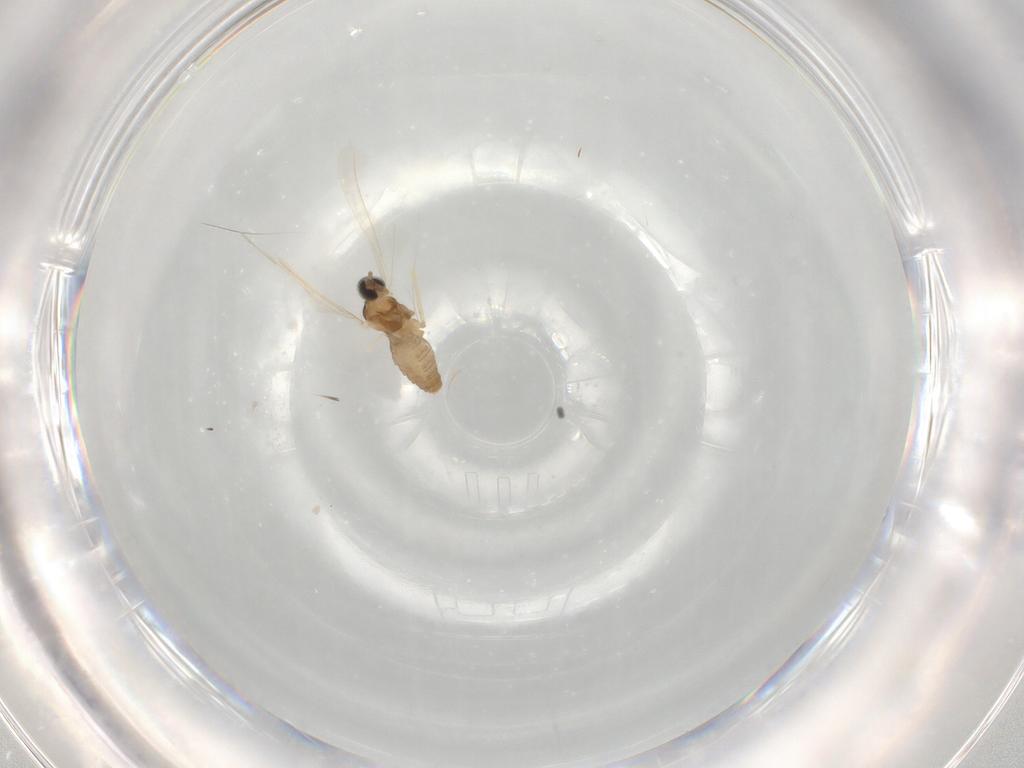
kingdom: Animalia
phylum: Arthropoda
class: Insecta
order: Diptera
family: Cecidomyiidae
